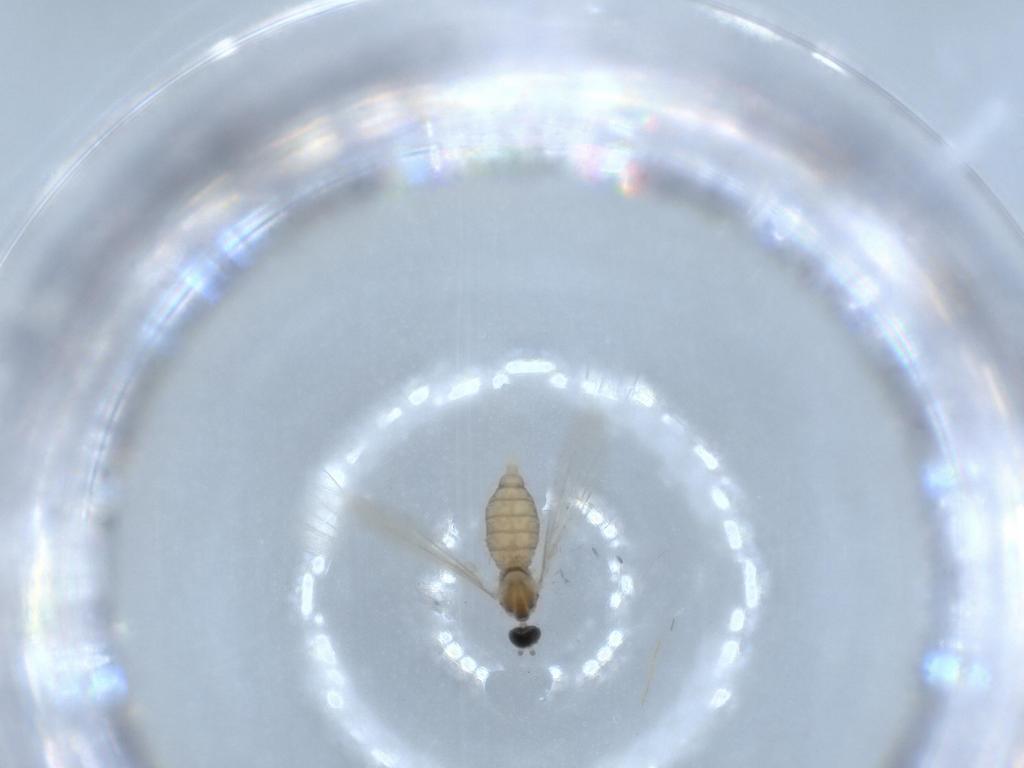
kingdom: Animalia
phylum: Arthropoda
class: Insecta
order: Diptera
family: Cecidomyiidae
